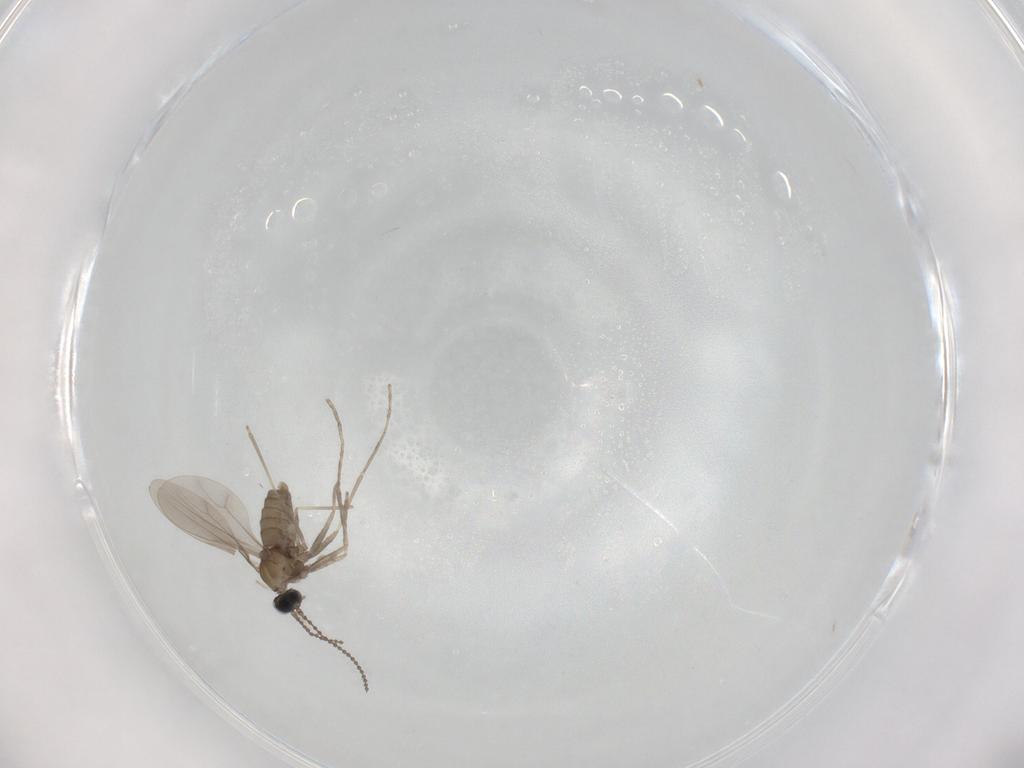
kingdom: Animalia
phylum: Arthropoda
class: Insecta
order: Diptera
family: Cecidomyiidae
